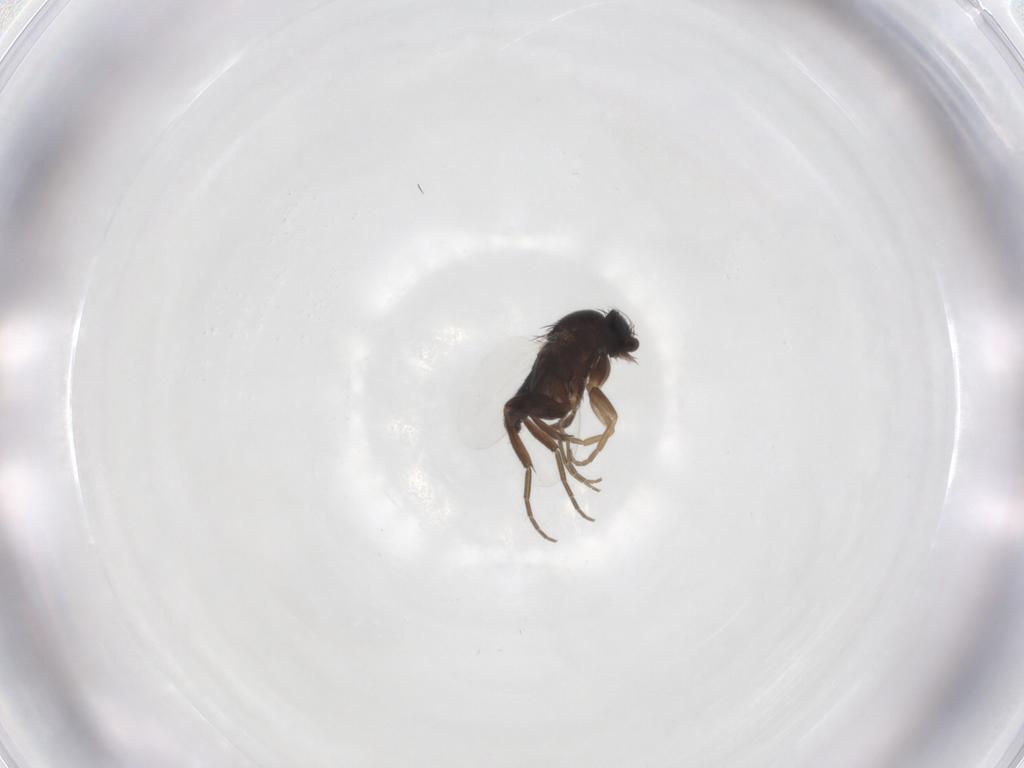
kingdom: Animalia
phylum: Arthropoda
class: Insecta
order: Diptera
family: Phoridae
